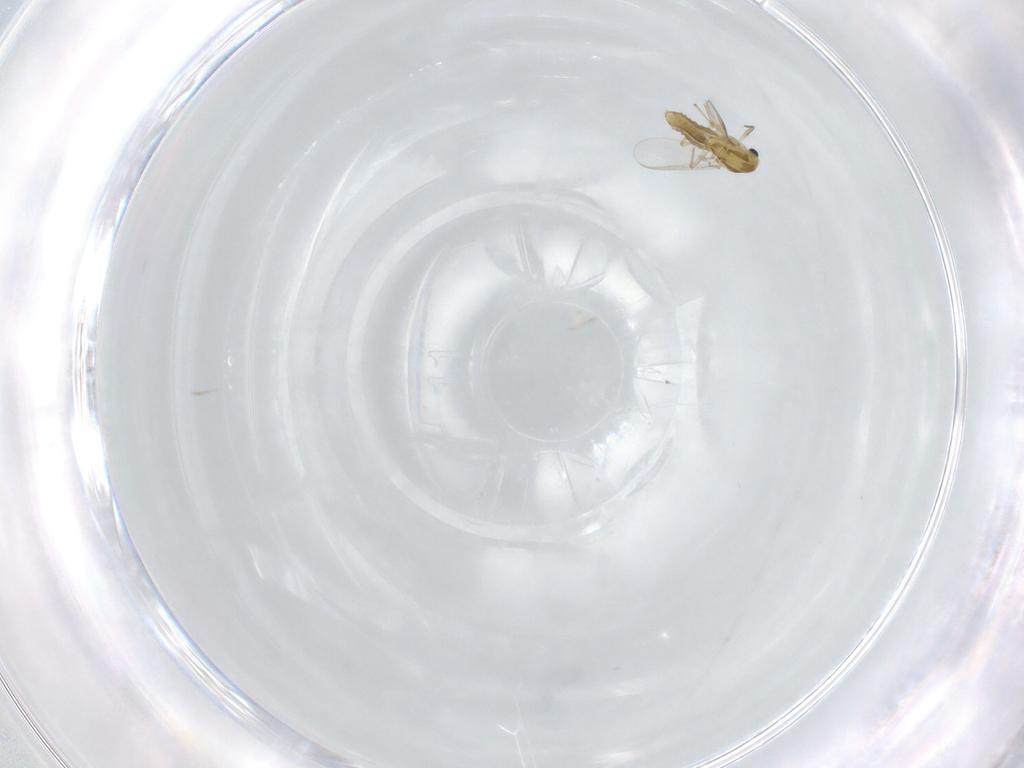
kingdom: Animalia
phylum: Arthropoda
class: Insecta
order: Diptera
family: Chironomidae
